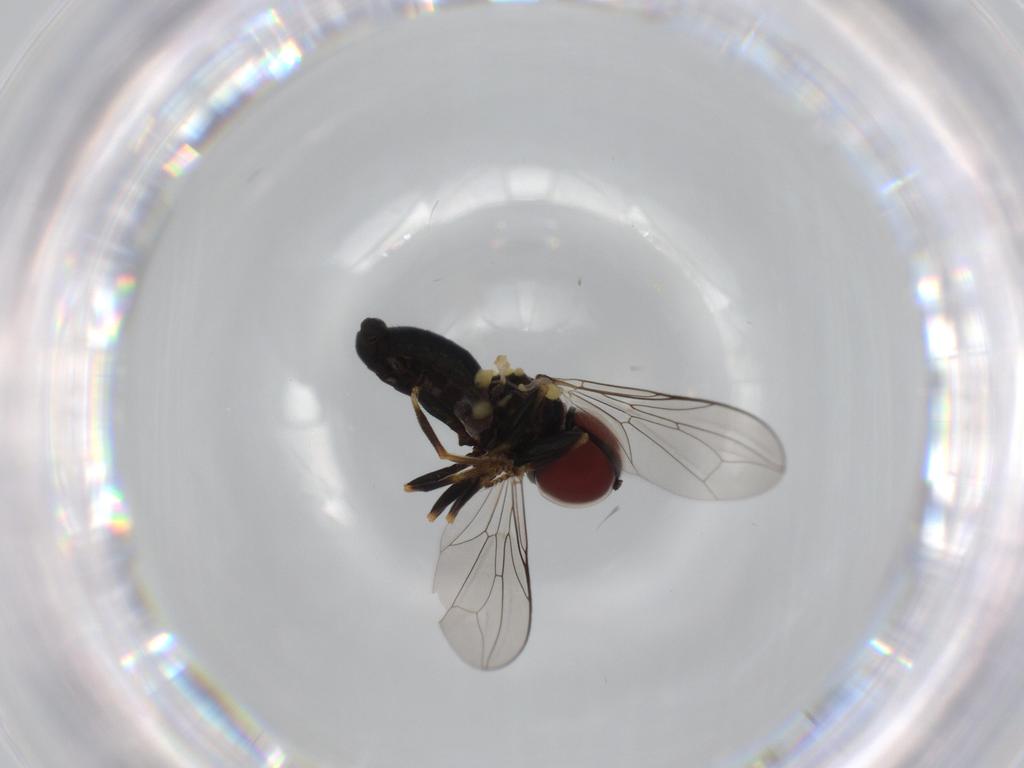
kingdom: Animalia
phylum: Arthropoda
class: Insecta
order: Diptera
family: Pipunculidae
